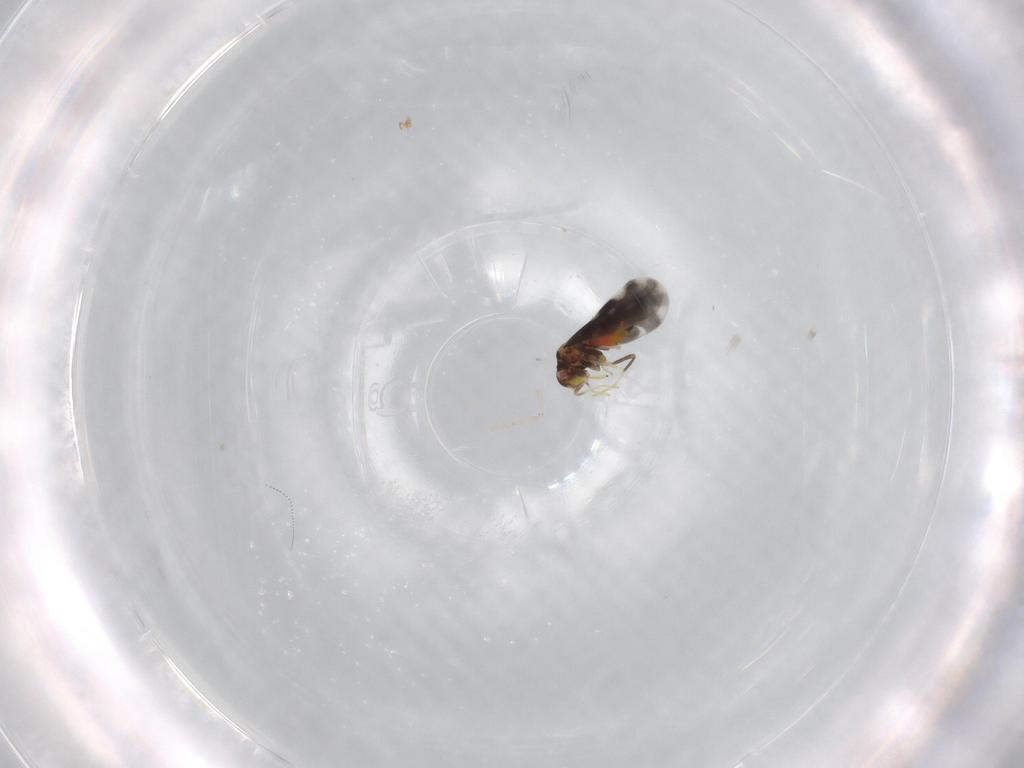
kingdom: Animalia
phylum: Arthropoda
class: Insecta
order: Hemiptera
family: Aleyrodidae
